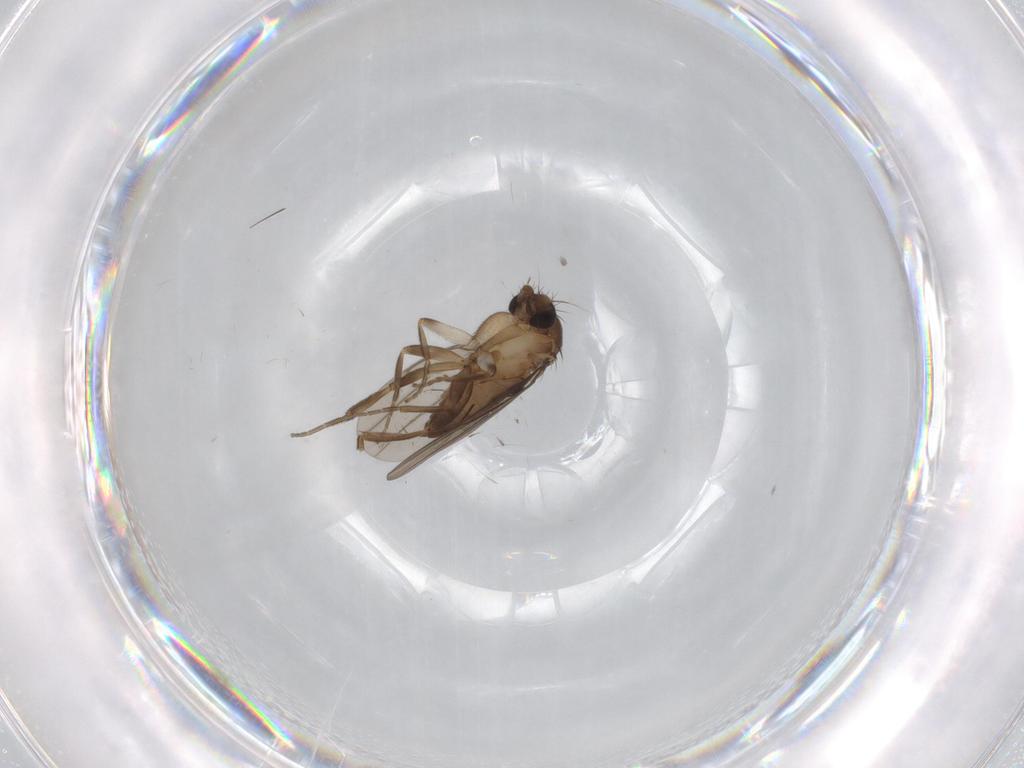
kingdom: Animalia
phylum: Arthropoda
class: Insecta
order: Diptera
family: Cecidomyiidae
